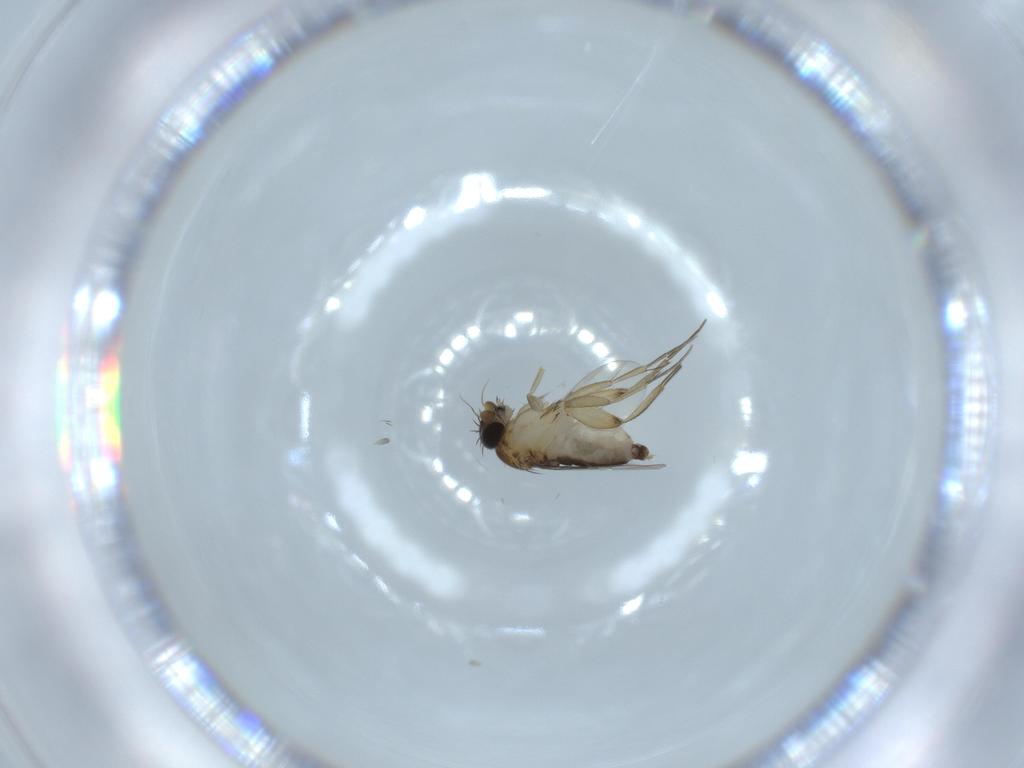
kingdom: Animalia
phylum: Arthropoda
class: Insecta
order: Diptera
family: Phoridae
